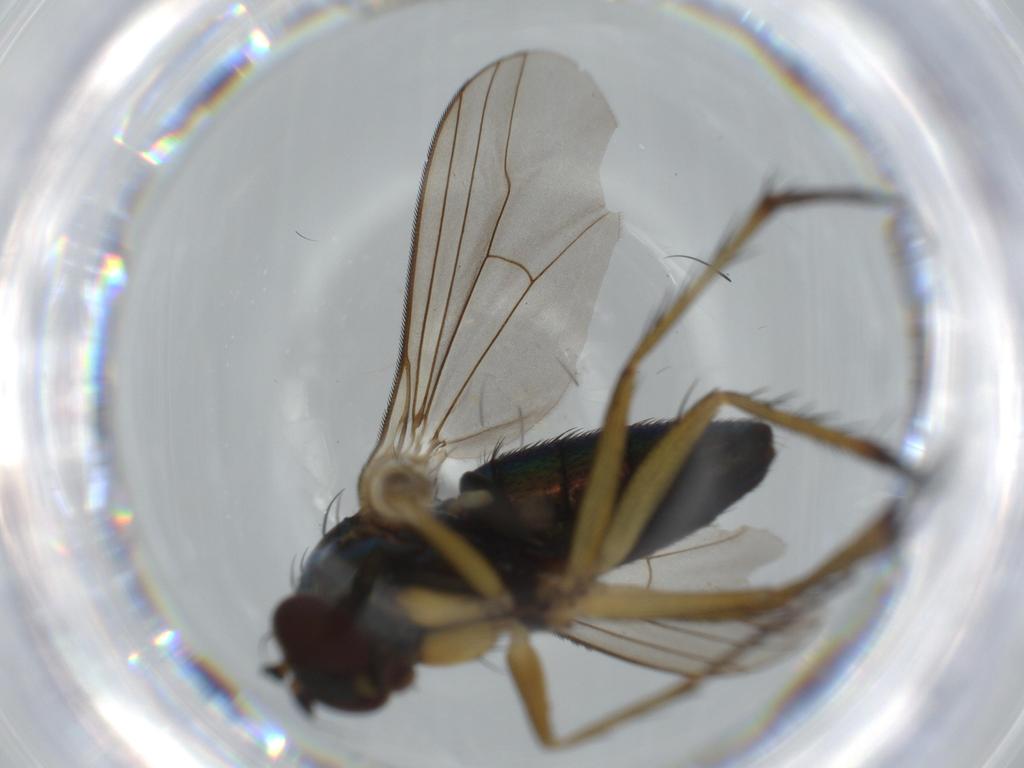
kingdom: Animalia
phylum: Arthropoda
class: Insecta
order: Diptera
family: Dolichopodidae
